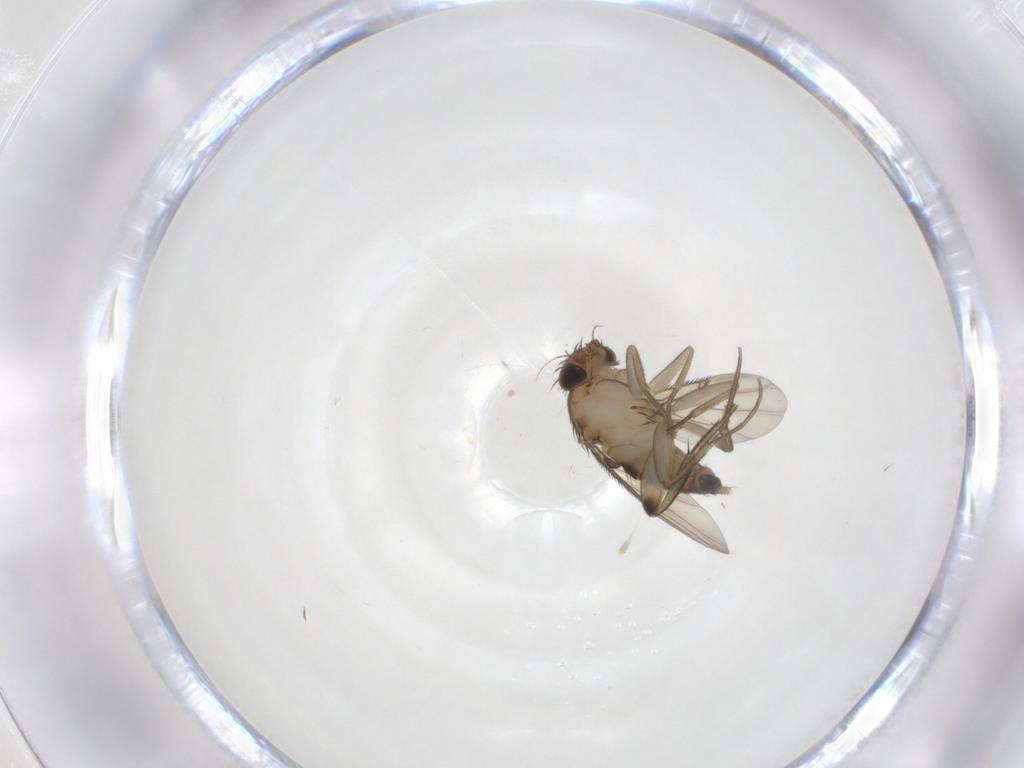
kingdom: Animalia
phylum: Arthropoda
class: Insecta
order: Diptera
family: Phoridae
